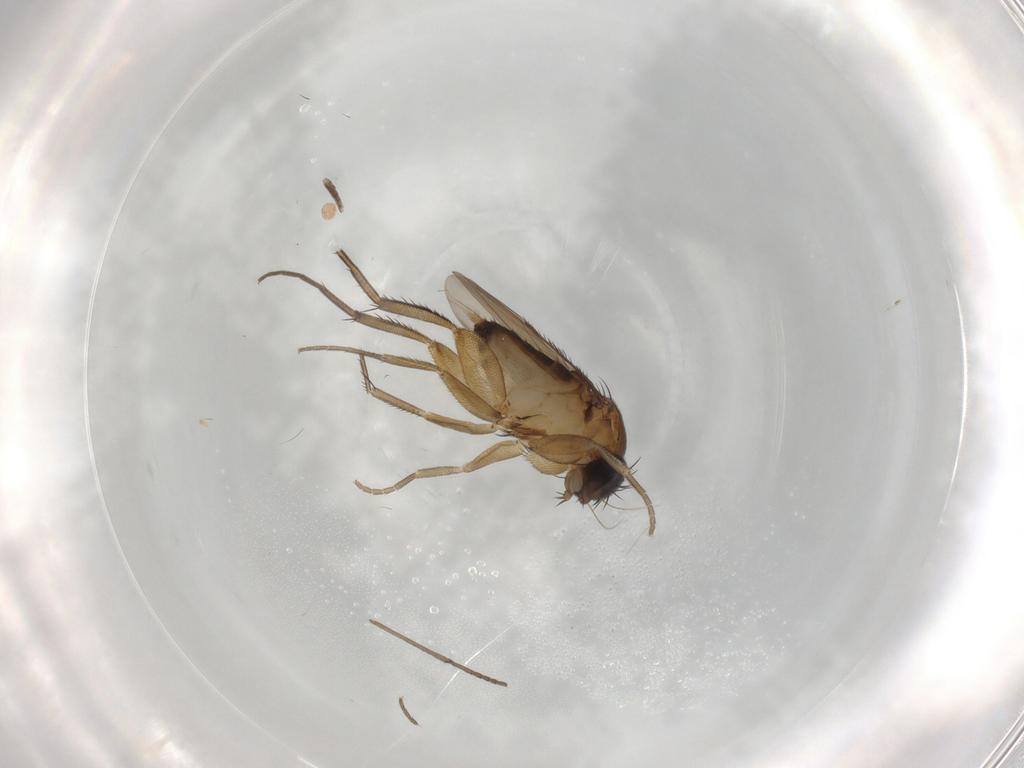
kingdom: Animalia
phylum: Arthropoda
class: Insecta
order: Diptera
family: Phoridae
